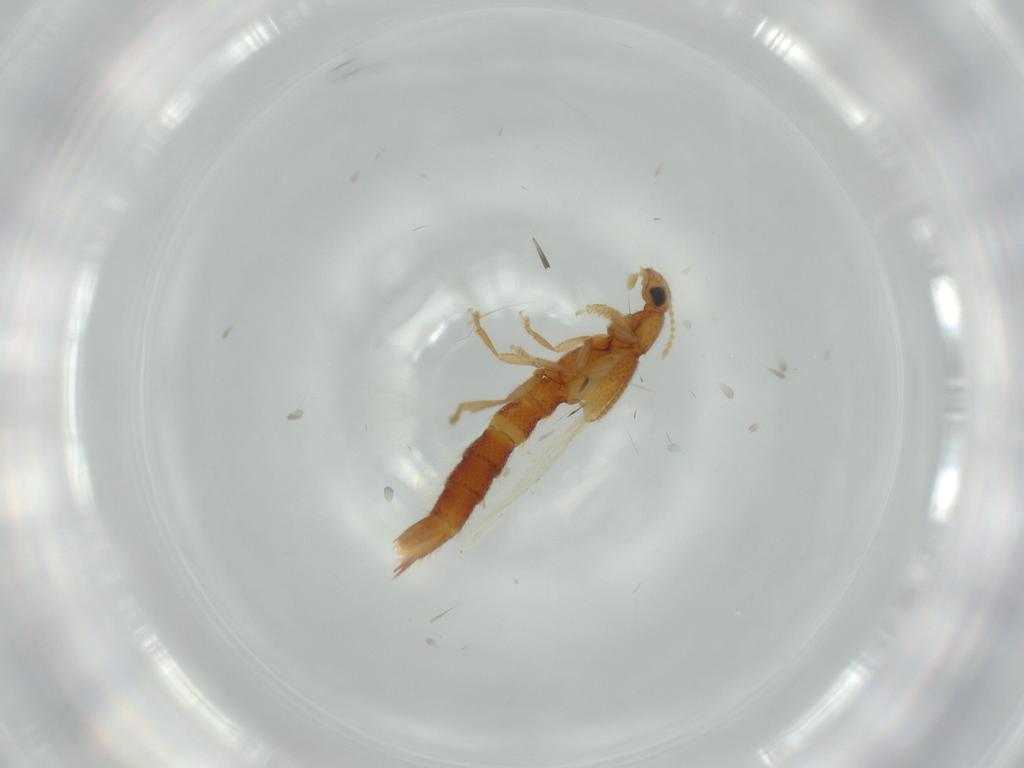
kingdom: Animalia
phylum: Arthropoda
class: Insecta
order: Coleoptera
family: Staphylinidae
